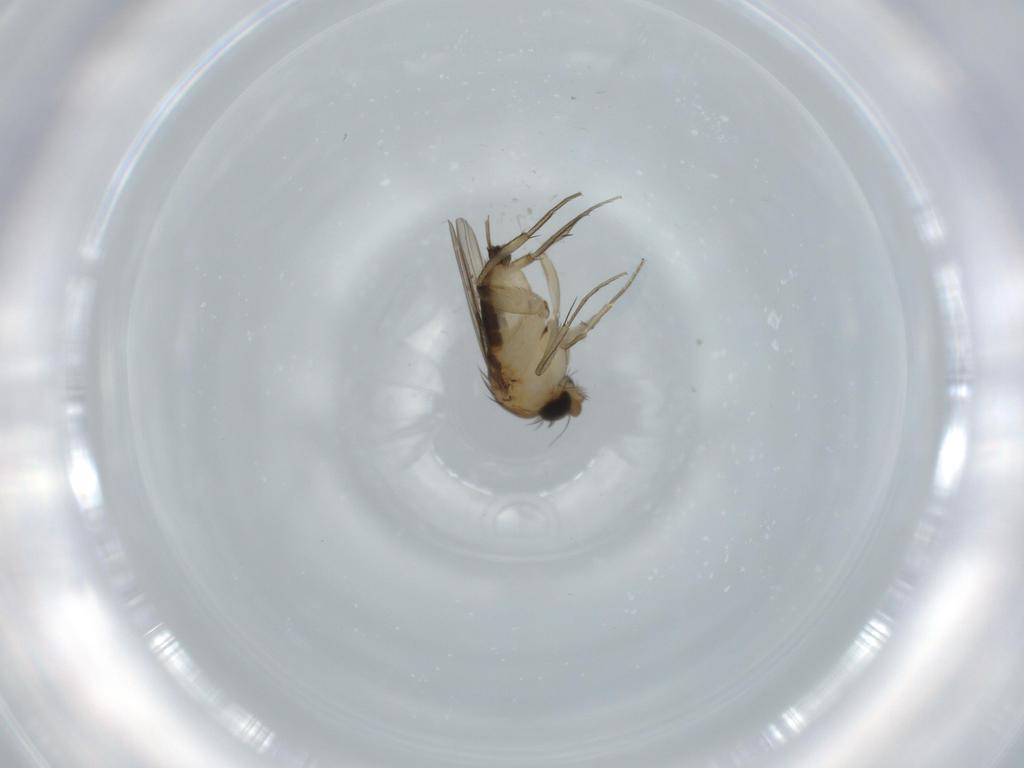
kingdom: Animalia
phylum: Arthropoda
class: Insecta
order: Diptera
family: Phoridae
